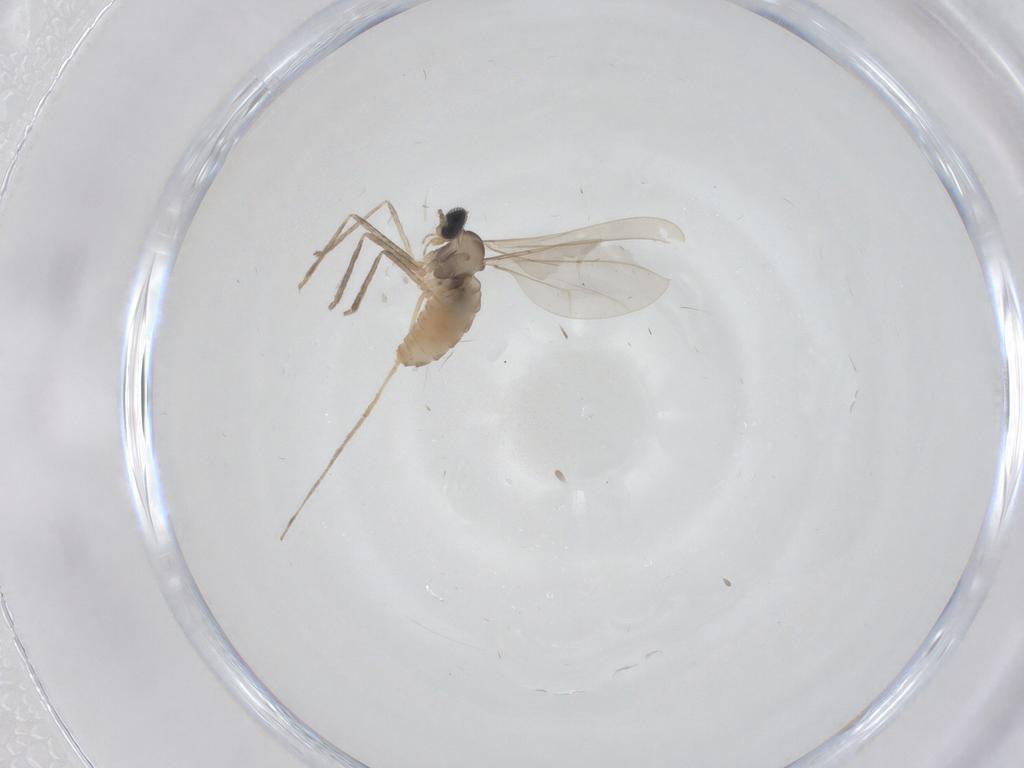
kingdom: Animalia
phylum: Arthropoda
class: Insecta
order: Diptera
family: Cecidomyiidae
